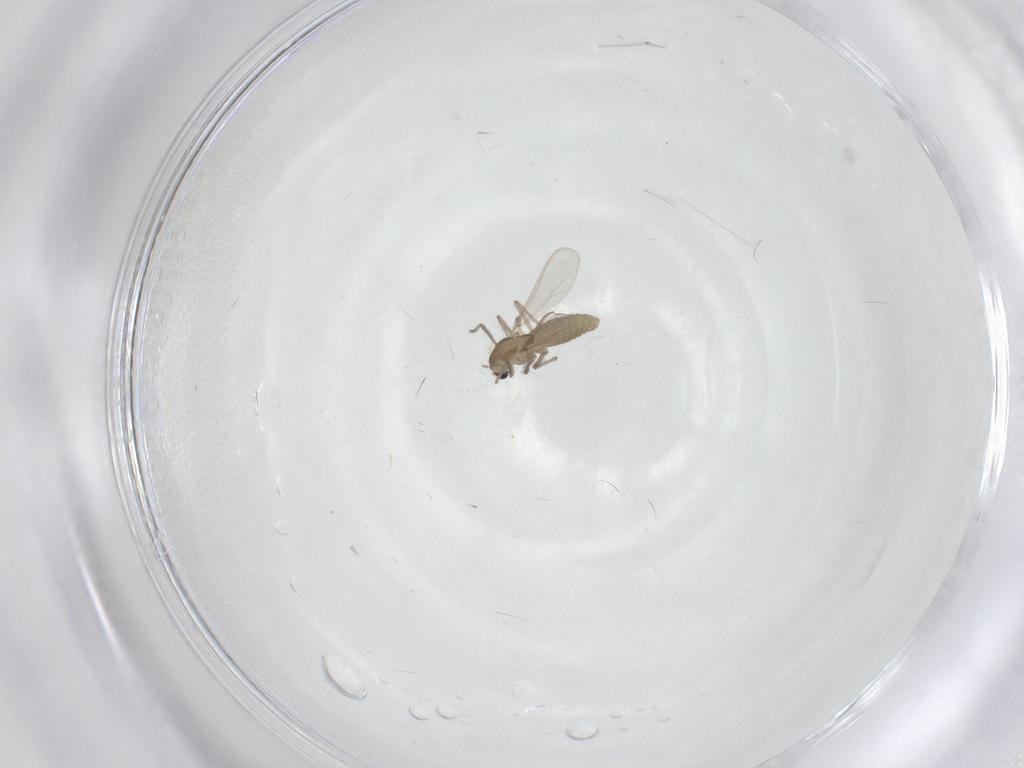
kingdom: Animalia
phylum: Arthropoda
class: Insecta
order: Diptera
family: Chironomidae
